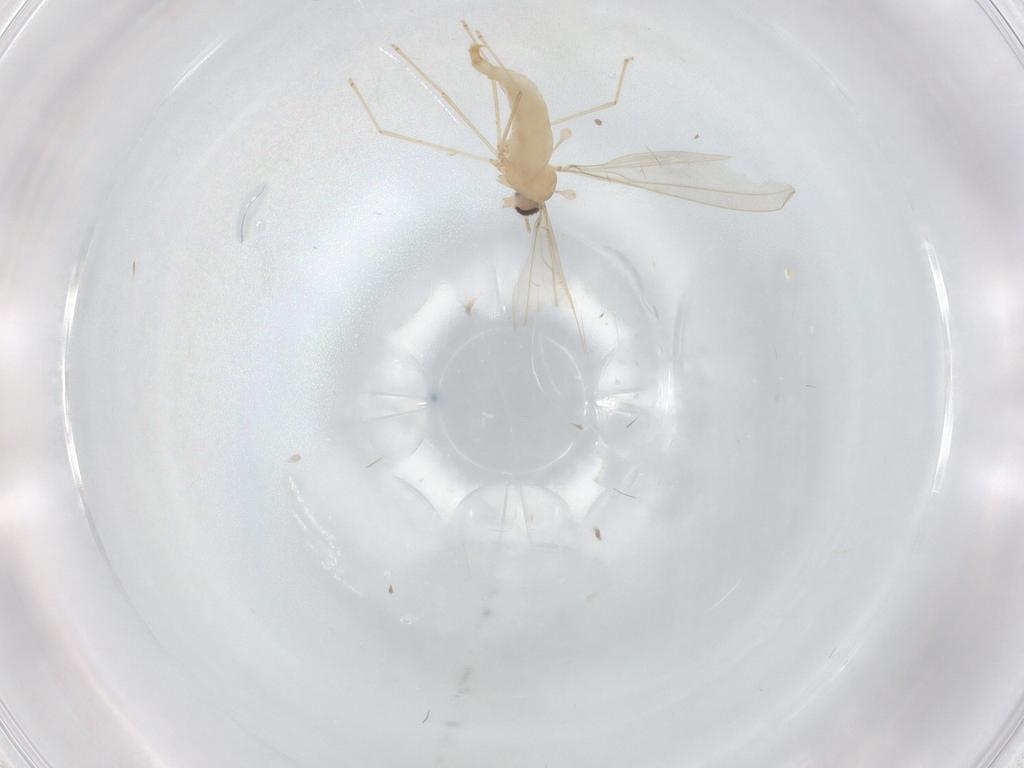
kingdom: Animalia
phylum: Arthropoda
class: Insecta
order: Diptera
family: Cecidomyiidae
